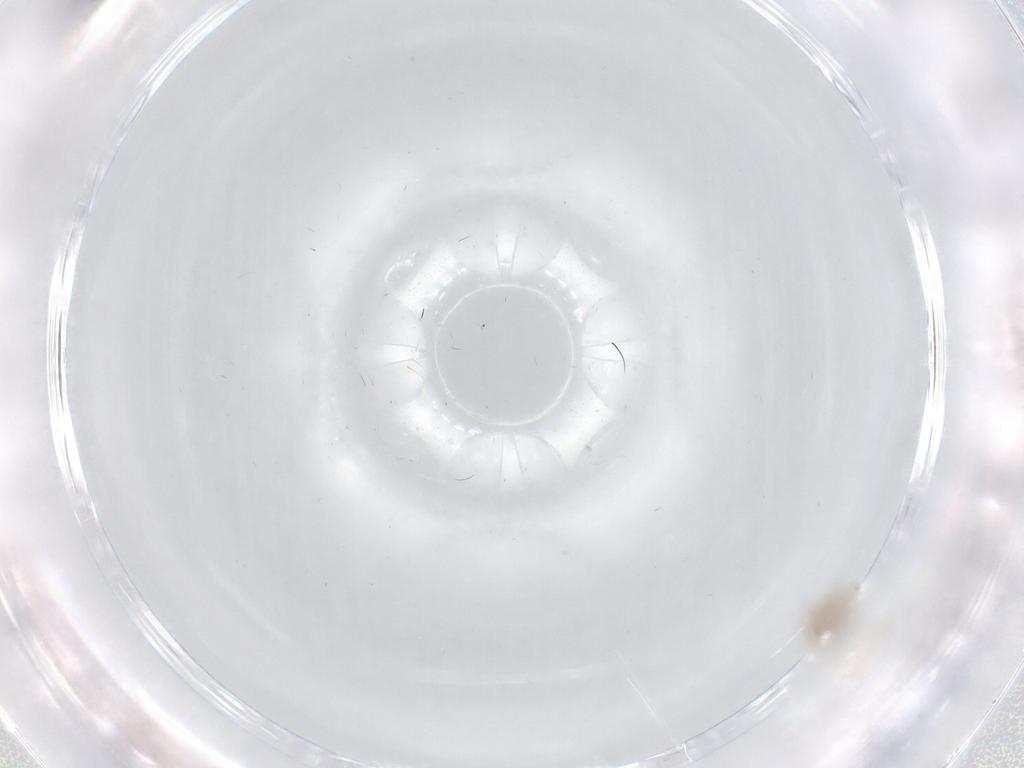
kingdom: Animalia
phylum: Arthropoda
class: Insecta
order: Diptera
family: Cecidomyiidae
